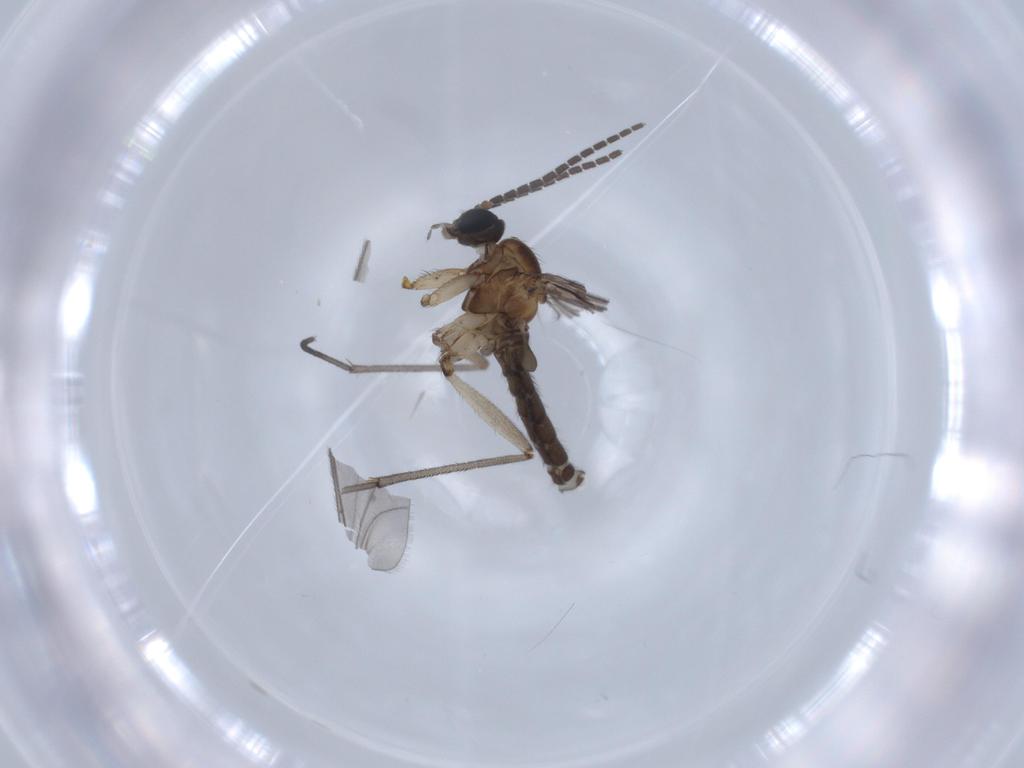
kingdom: Animalia
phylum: Arthropoda
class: Insecta
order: Diptera
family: Sciaridae
